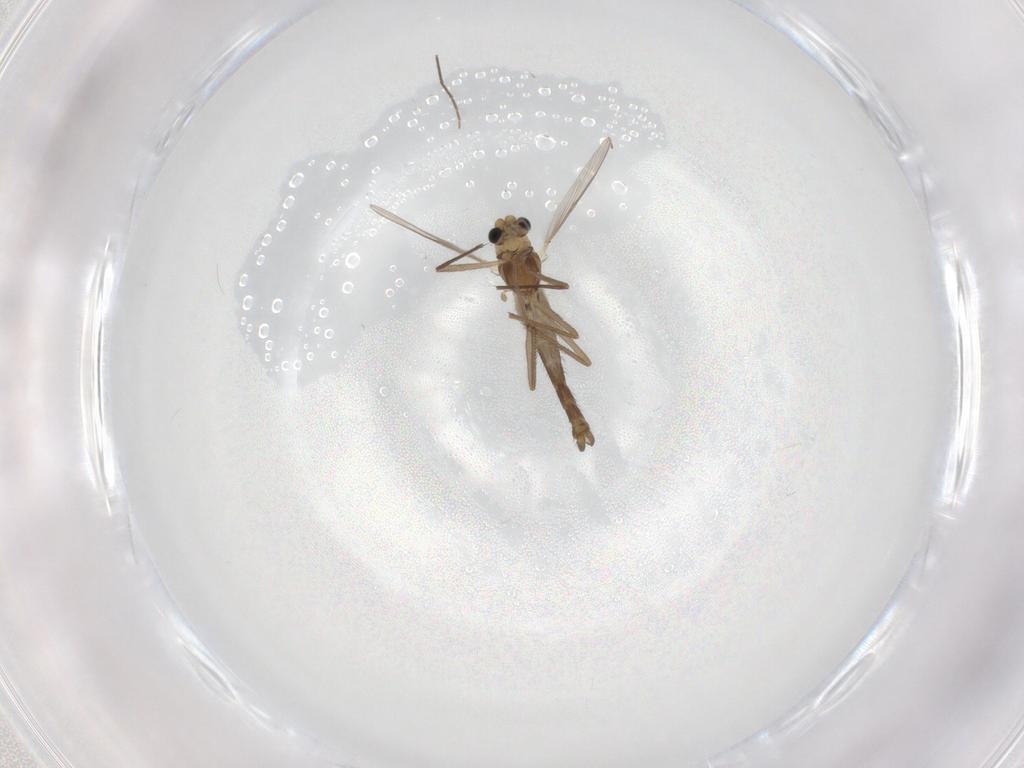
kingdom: Animalia
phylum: Arthropoda
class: Insecta
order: Diptera
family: Chironomidae
